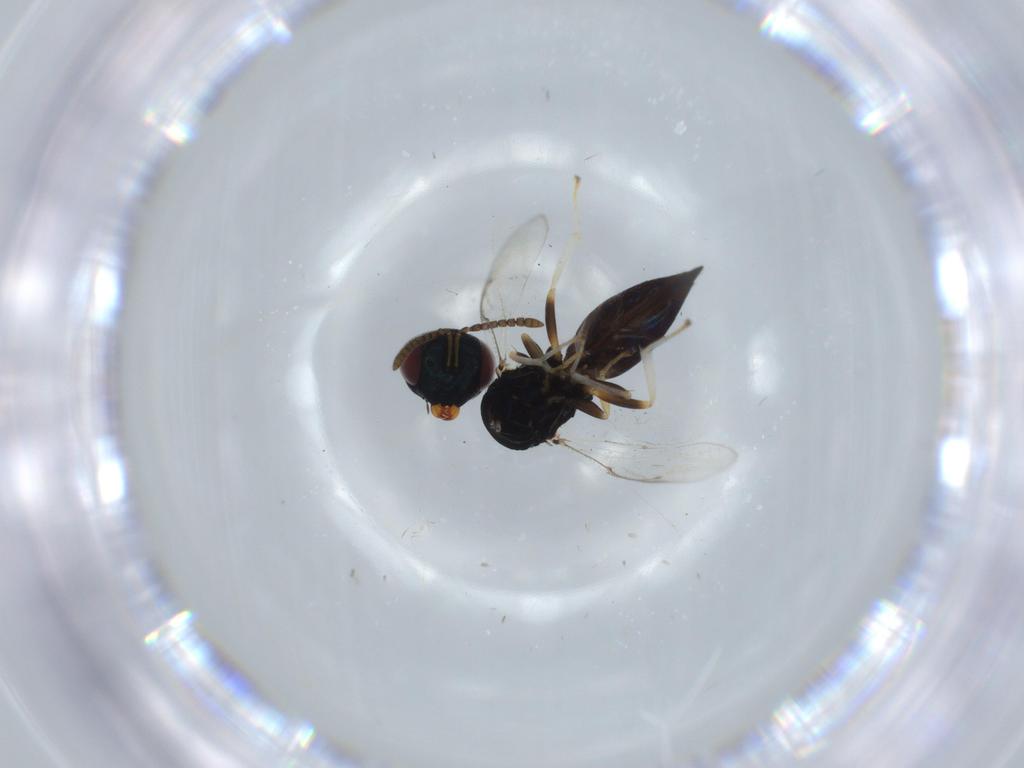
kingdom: Animalia
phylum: Arthropoda
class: Insecta
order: Hymenoptera
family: Pteromalidae
